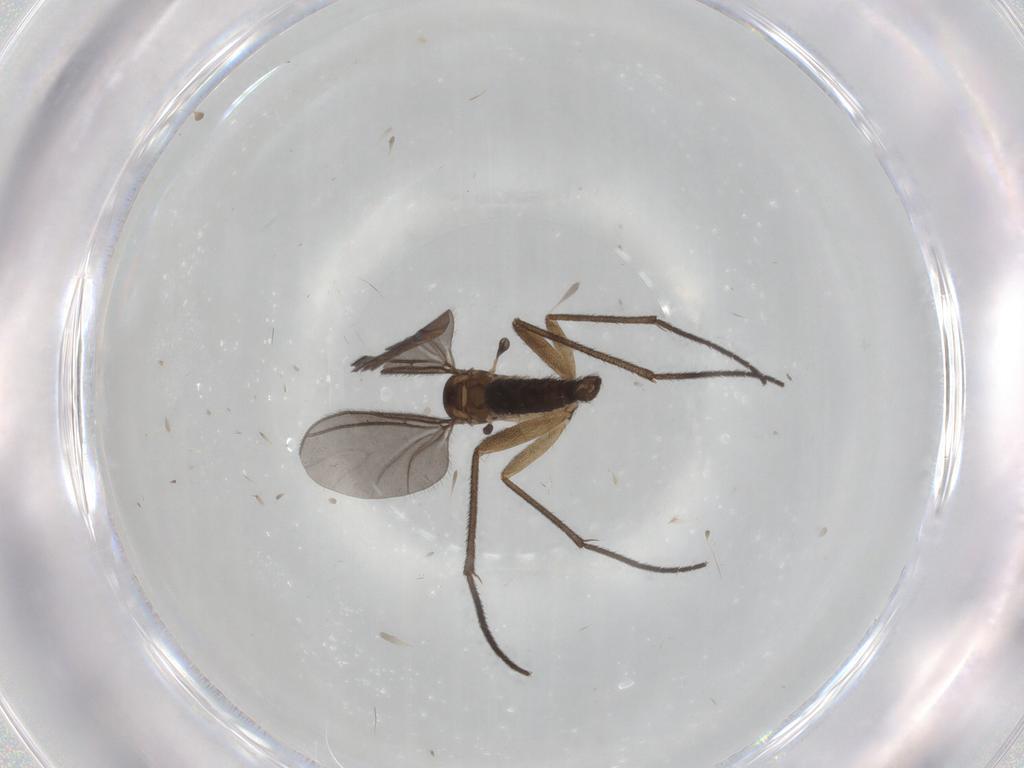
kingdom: Animalia
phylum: Arthropoda
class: Insecta
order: Diptera
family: Sciaridae
